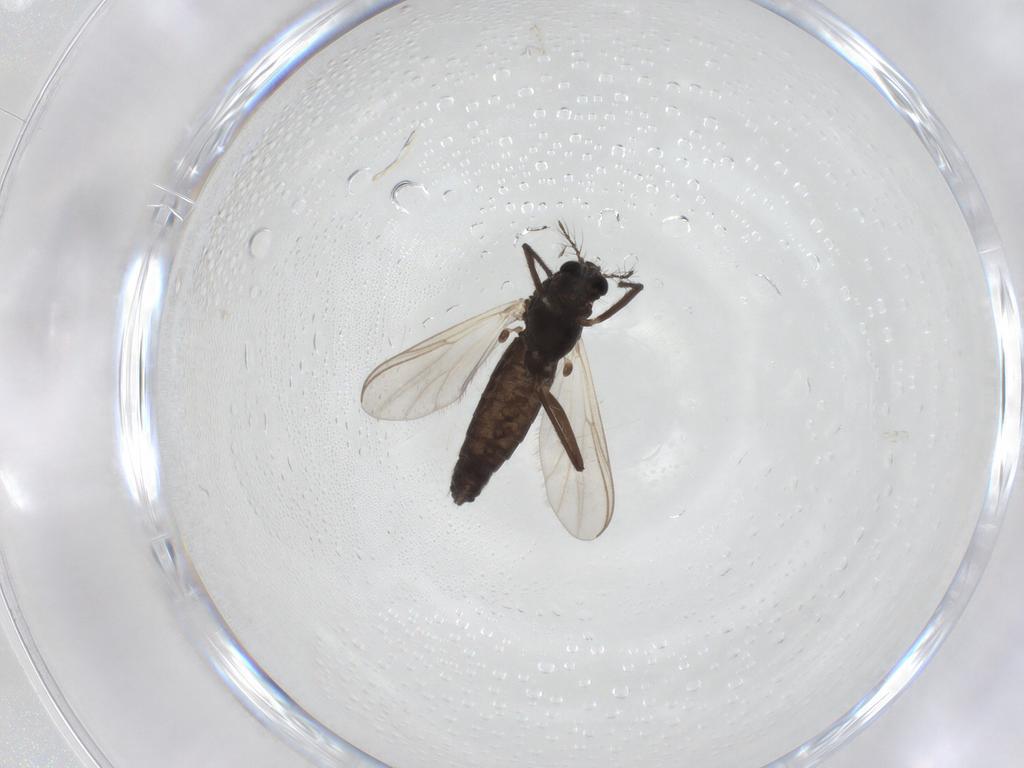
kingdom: Animalia
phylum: Arthropoda
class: Insecta
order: Diptera
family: Chironomidae
